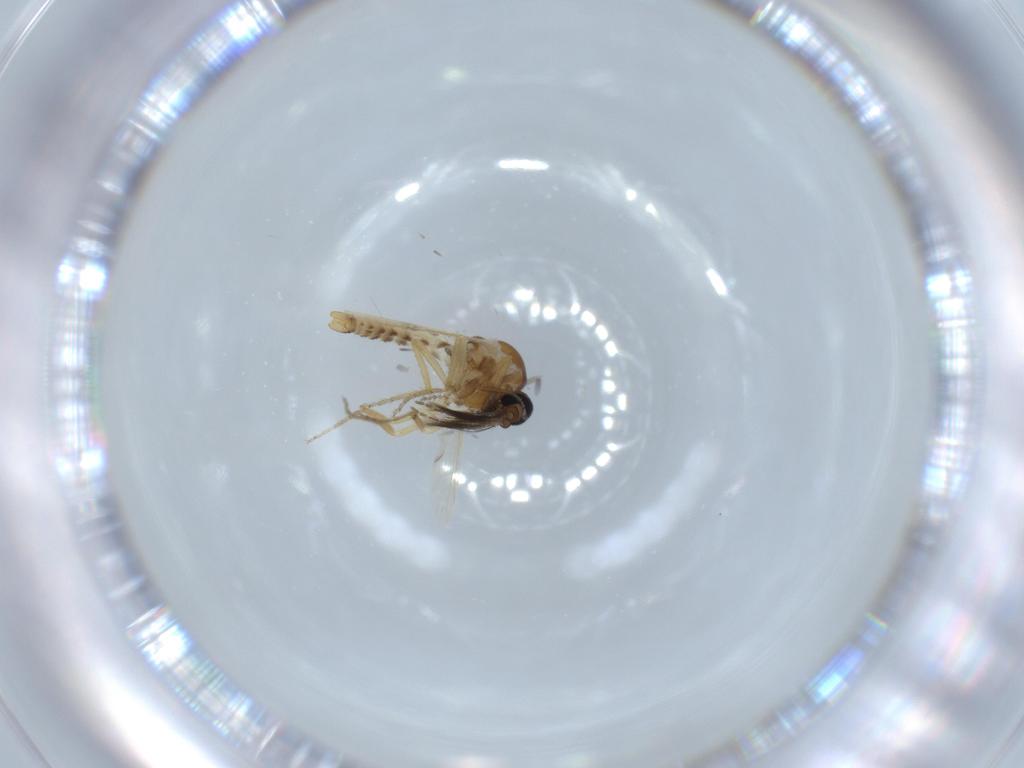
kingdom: Animalia
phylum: Arthropoda
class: Insecta
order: Diptera
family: Cecidomyiidae
